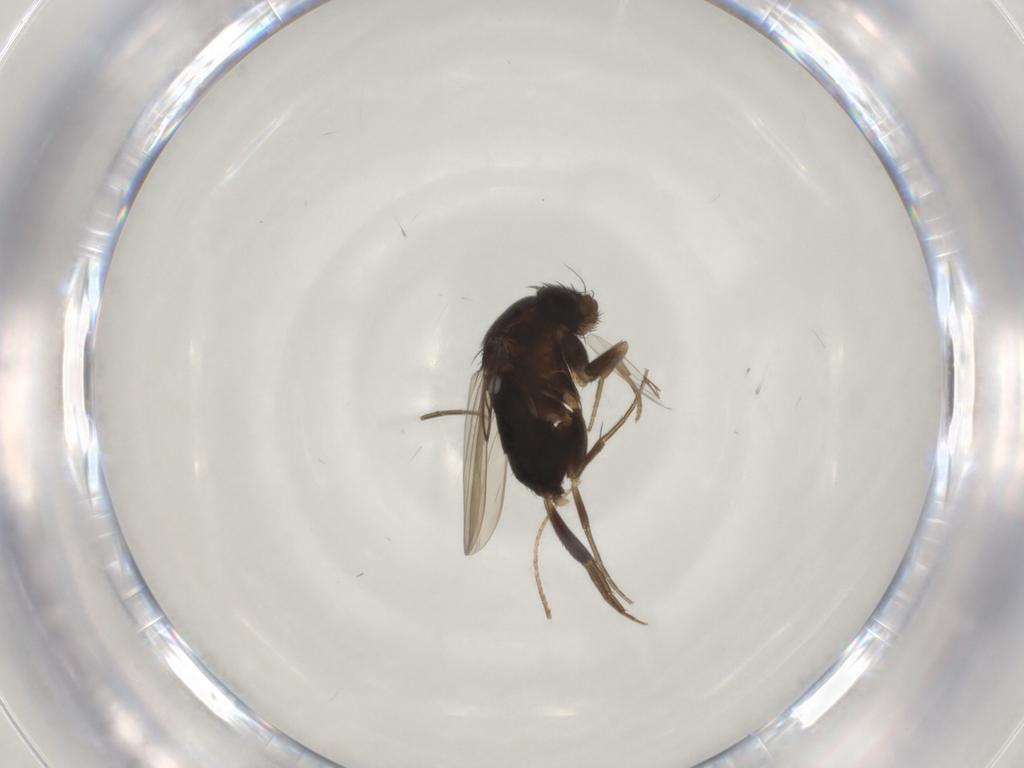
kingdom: Animalia
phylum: Arthropoda
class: Insecta
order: Diptera
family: Phoridae
